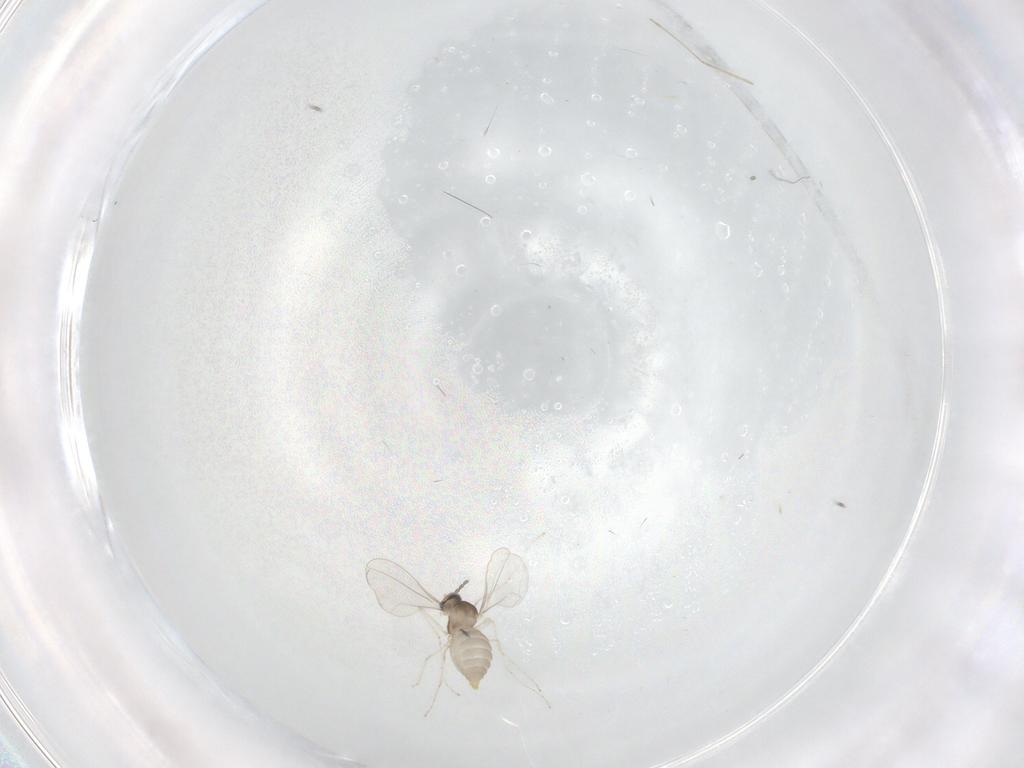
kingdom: Animalia
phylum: Arthropoda
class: Insecta
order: Diptera
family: Cecidomyiidae
